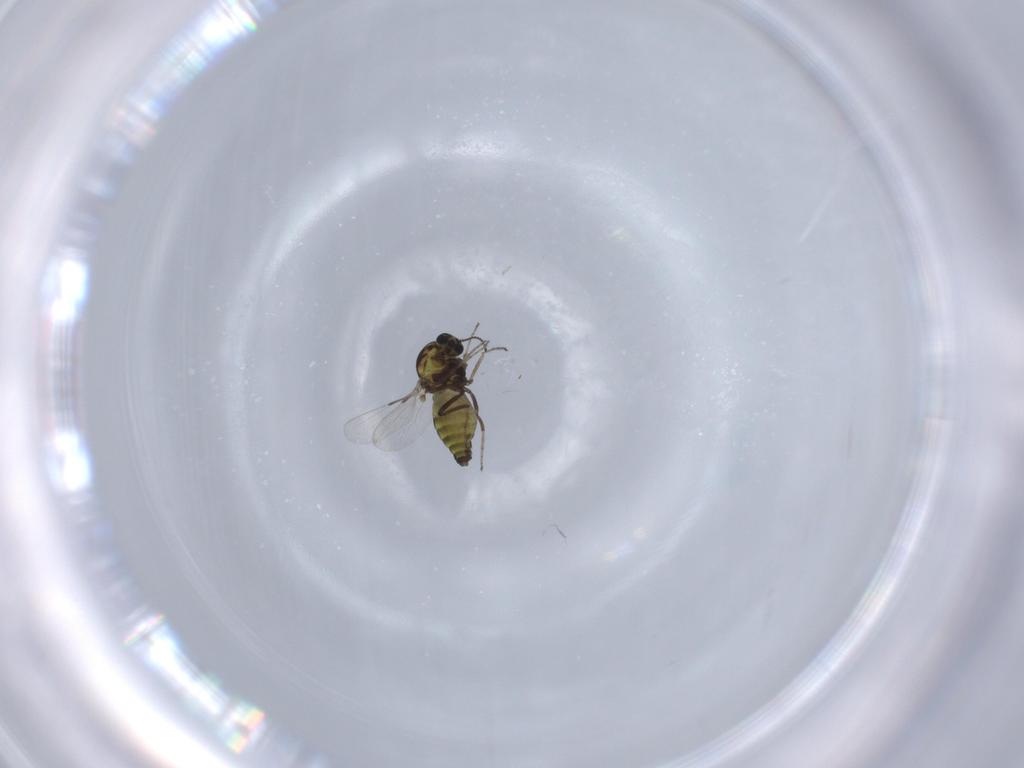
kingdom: Animalia
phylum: Arthropoda
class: Insecta
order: Diptera
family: Ceratopogonidae
